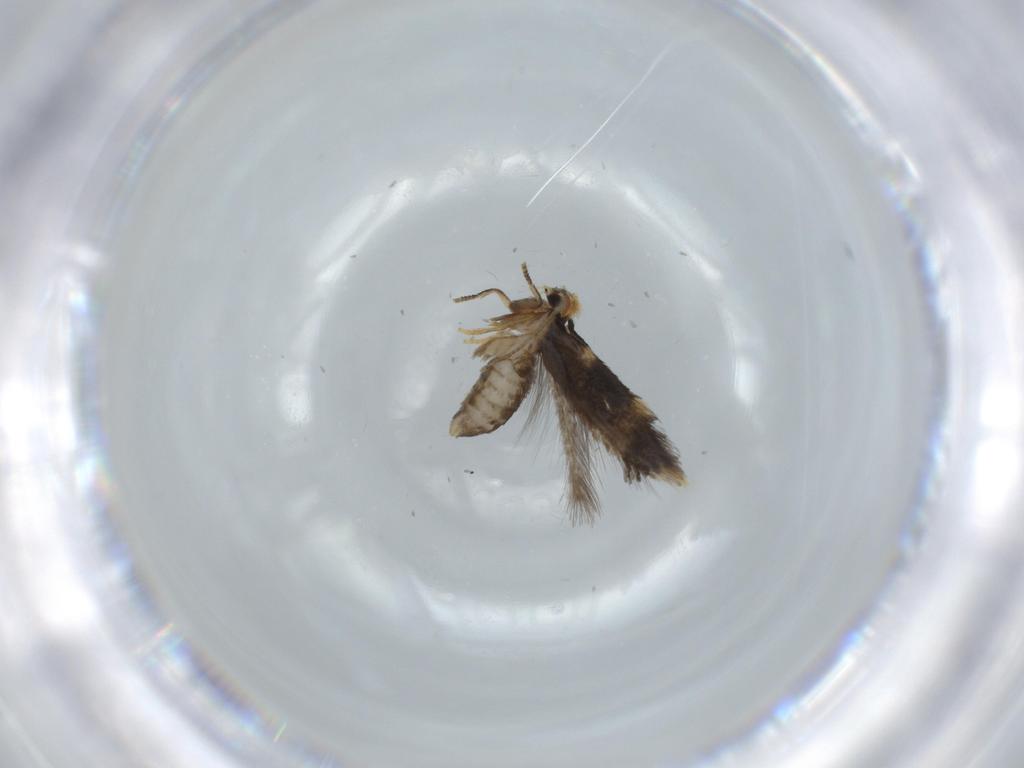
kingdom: Animalia
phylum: Arthropoda
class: Insecta
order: Lepidoptera
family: Nepticulidae
